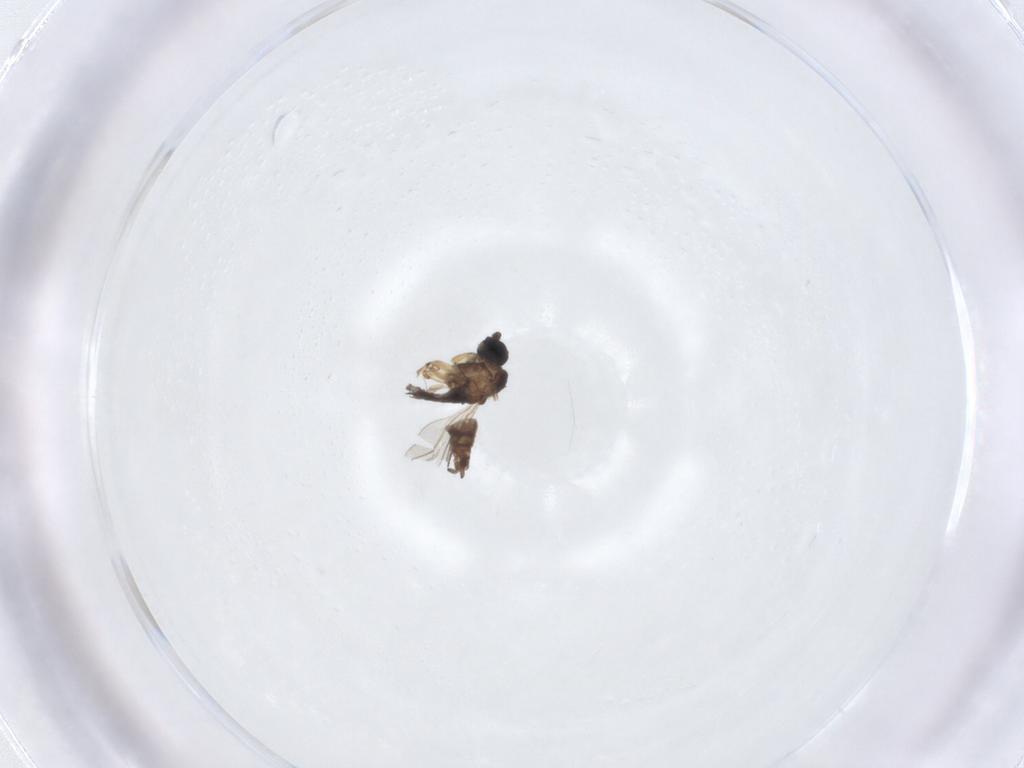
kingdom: Animalia
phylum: Arthropoda
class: Insecta
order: Diptera
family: Sciaridae
